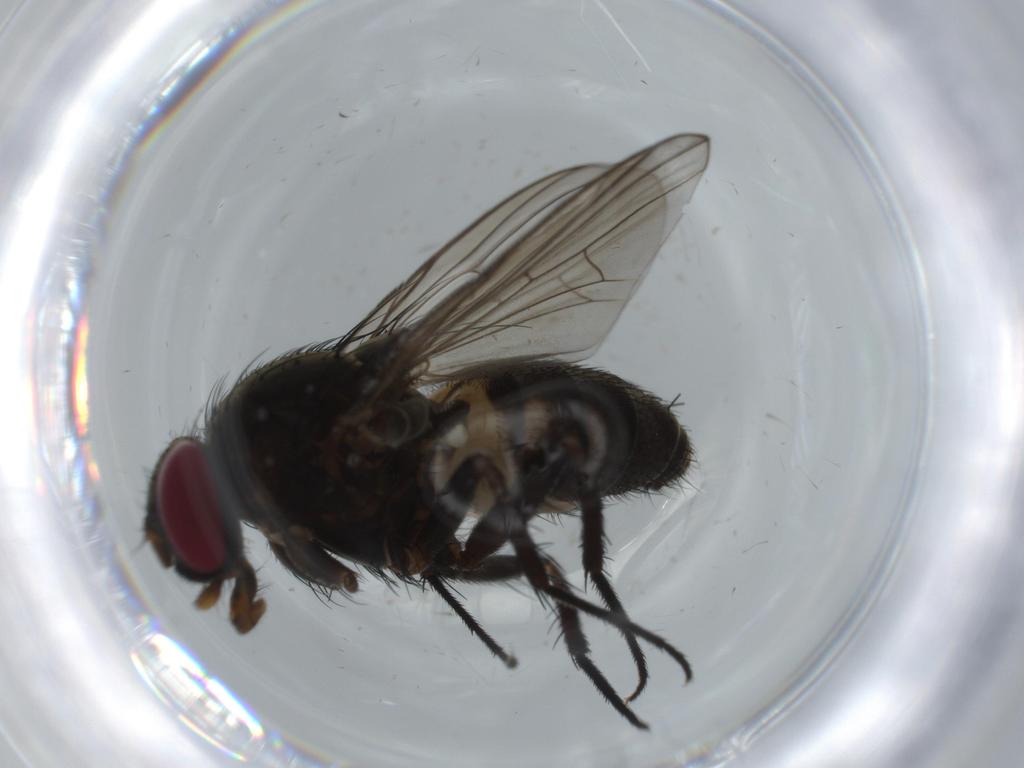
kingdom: Animalia
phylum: Arthropoda
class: Insecta
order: Diptera
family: Fannia
